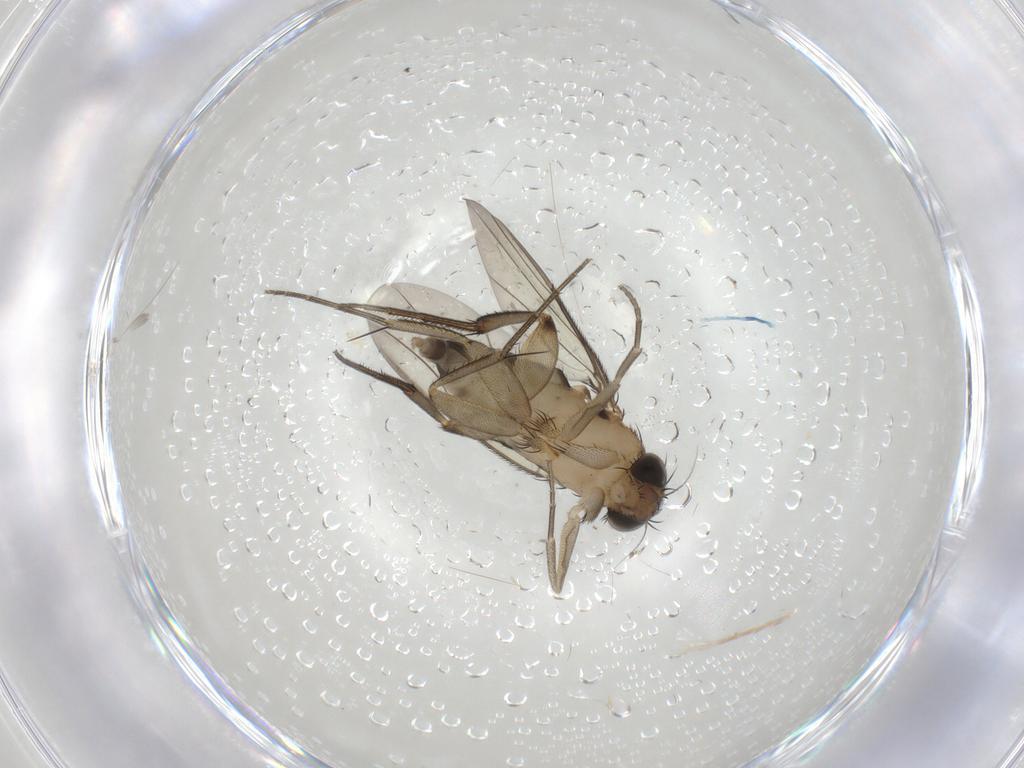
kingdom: Animalia
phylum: Arthropoda
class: Insecta
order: Diptera
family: Phoridae
